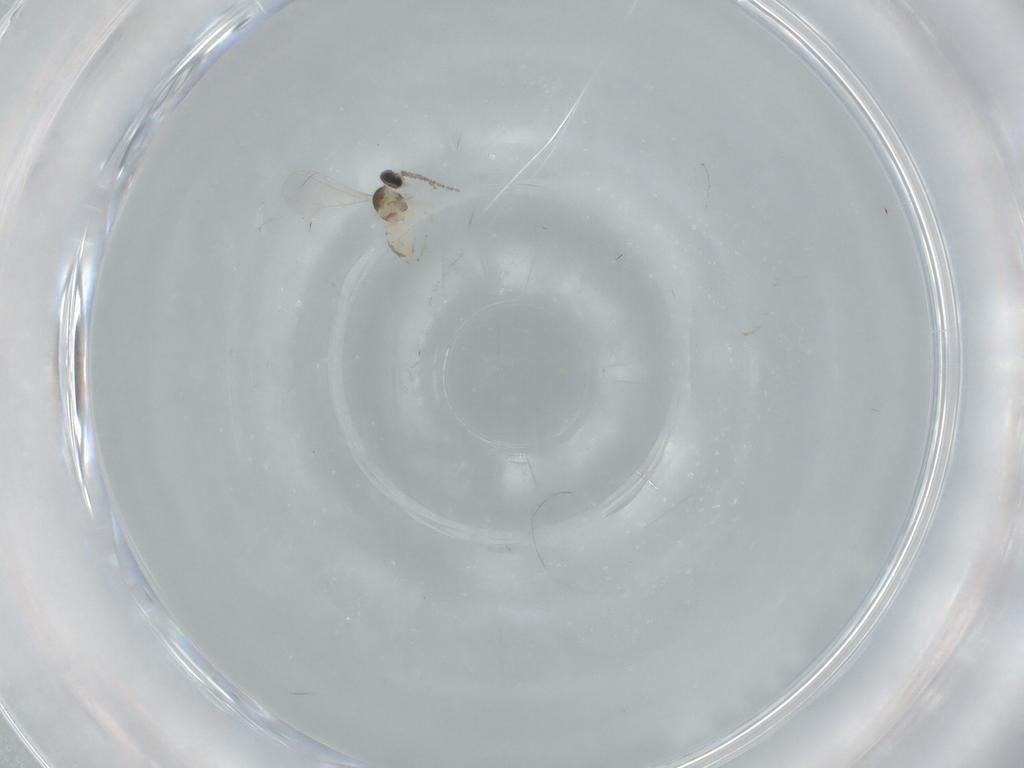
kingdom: Animalia
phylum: Arthropoda
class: Insecta
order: Diptera
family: Cecidomyiidae
